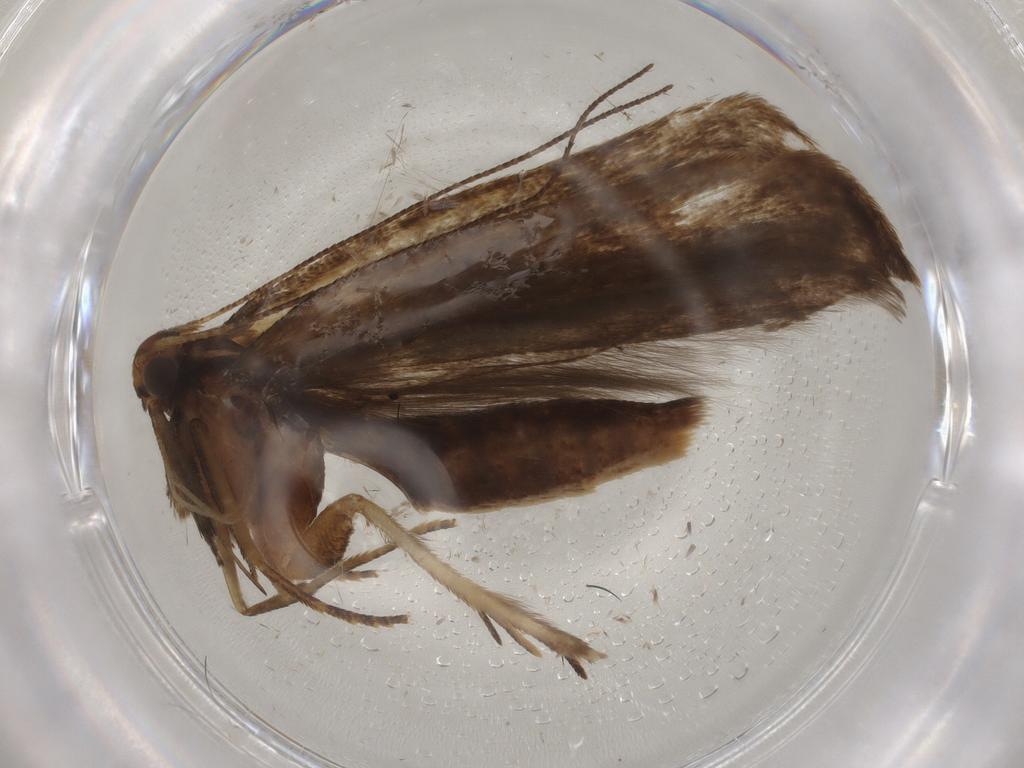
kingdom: Animalia
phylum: Arthropoda
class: Insecta
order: Lepidoptera
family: Gelechiidae
